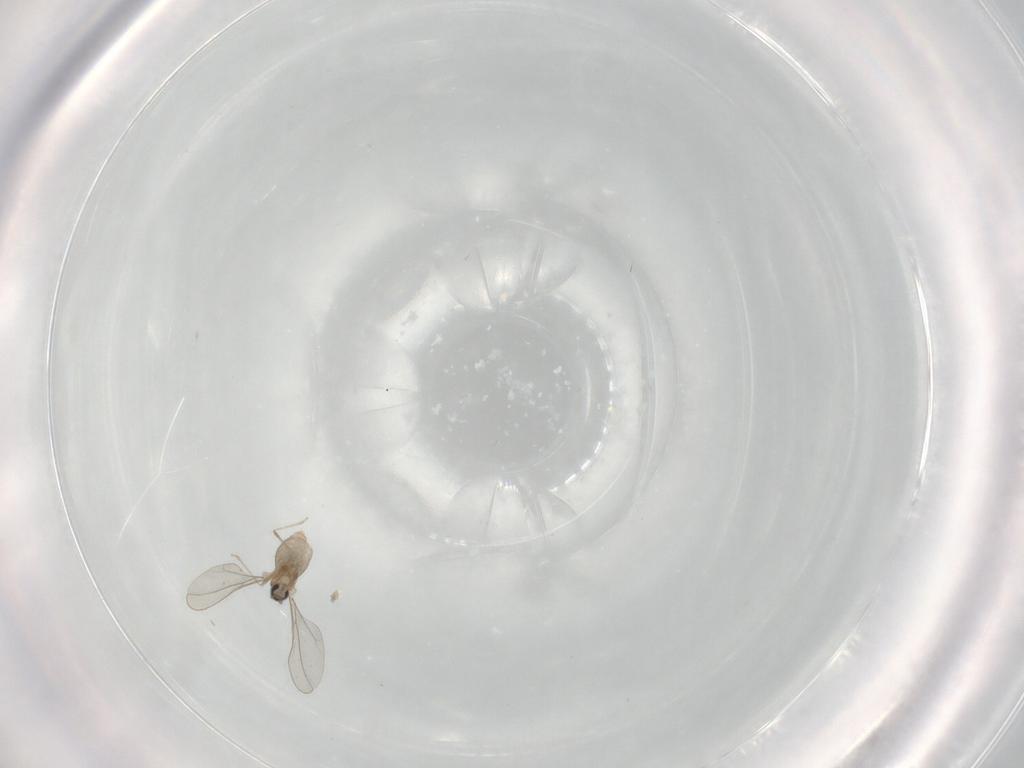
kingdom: Animalia
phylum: Arthropoda
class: Insecta
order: Diptera
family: Cecidomyiidae
